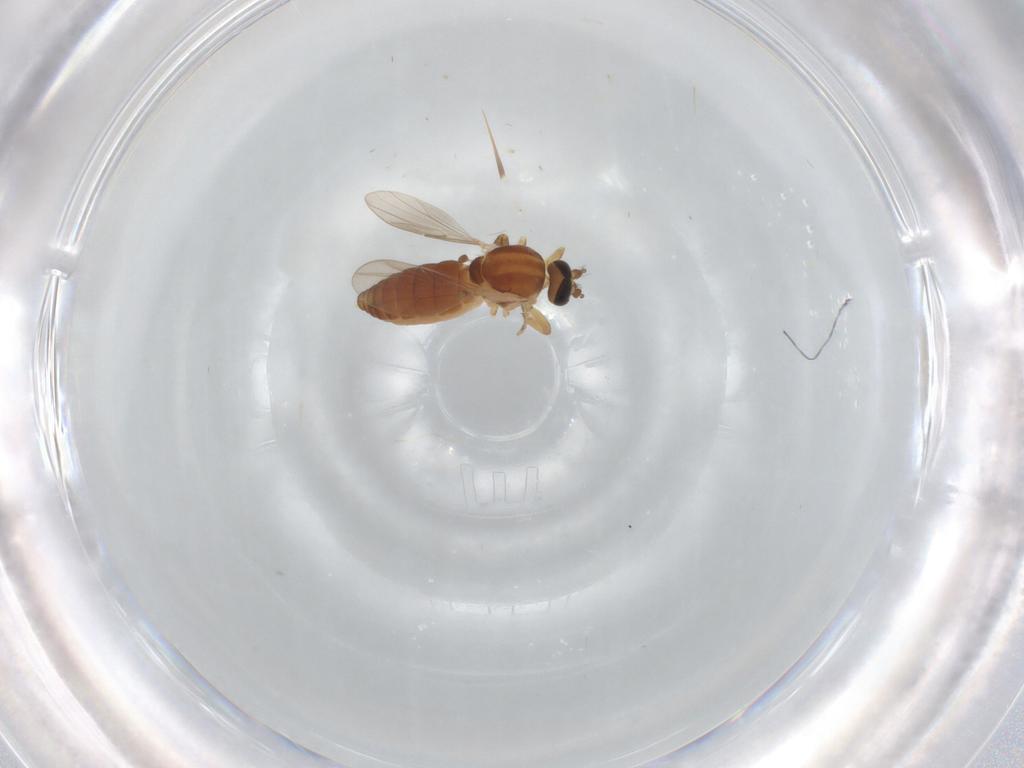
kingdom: Animalia
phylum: Arthropoda
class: Insecta
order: Diptera
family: Ceratopogonidae
